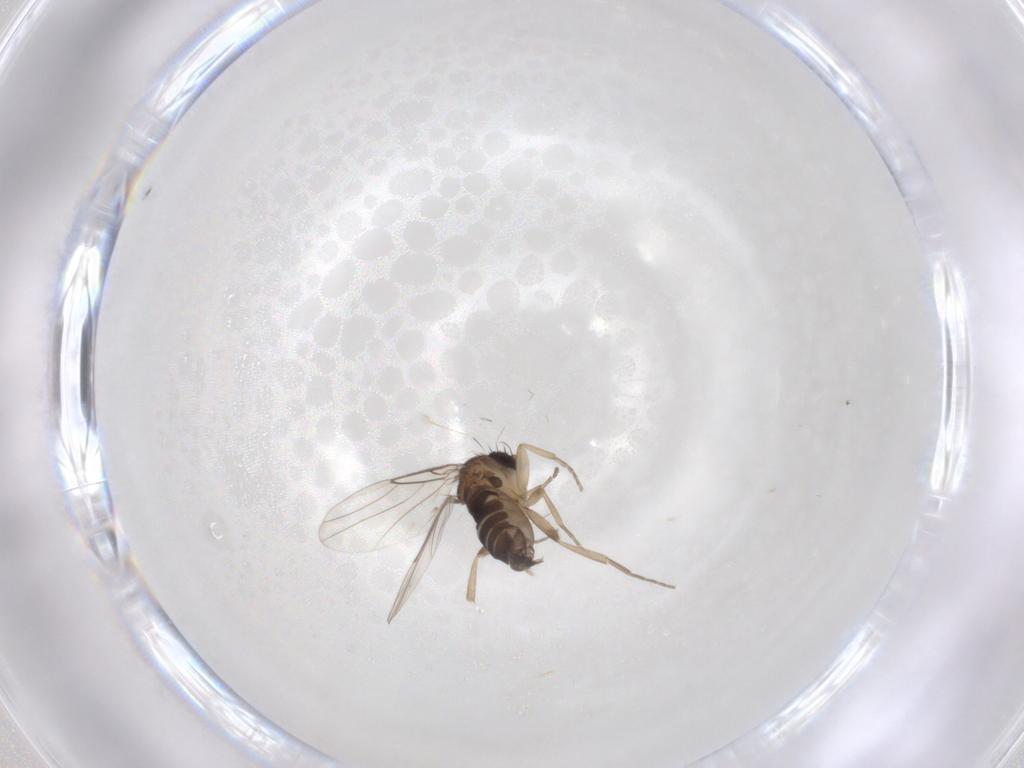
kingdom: Animalia
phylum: Arthropoda
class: Insecta
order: Diptera
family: Phoridae
